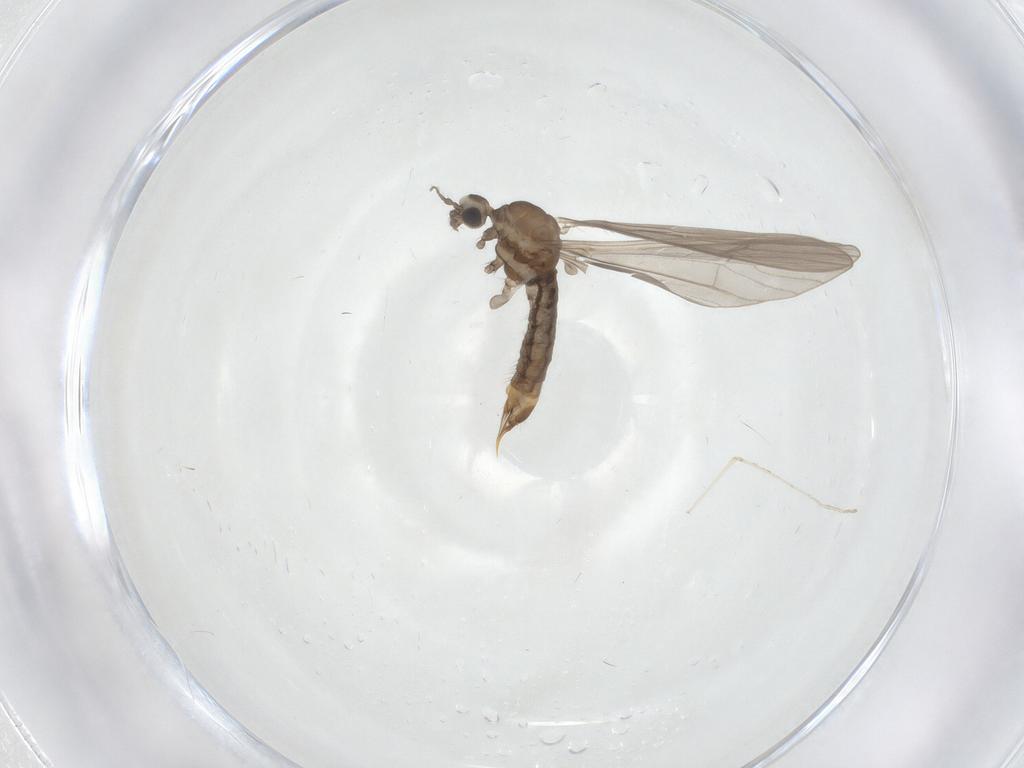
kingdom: Animalia
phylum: Arthropoda
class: Insecta
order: Diptera
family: Limoniidae
